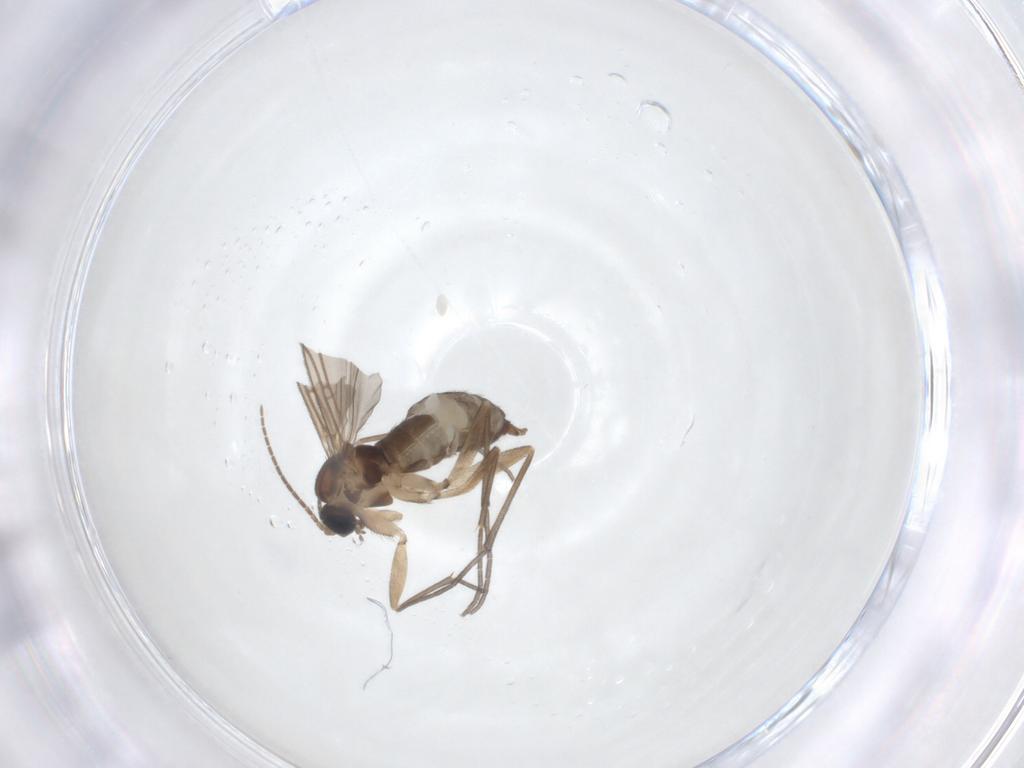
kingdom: Animalia
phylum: Arthropoda
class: Insecta
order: Diptera
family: Sciaridae
